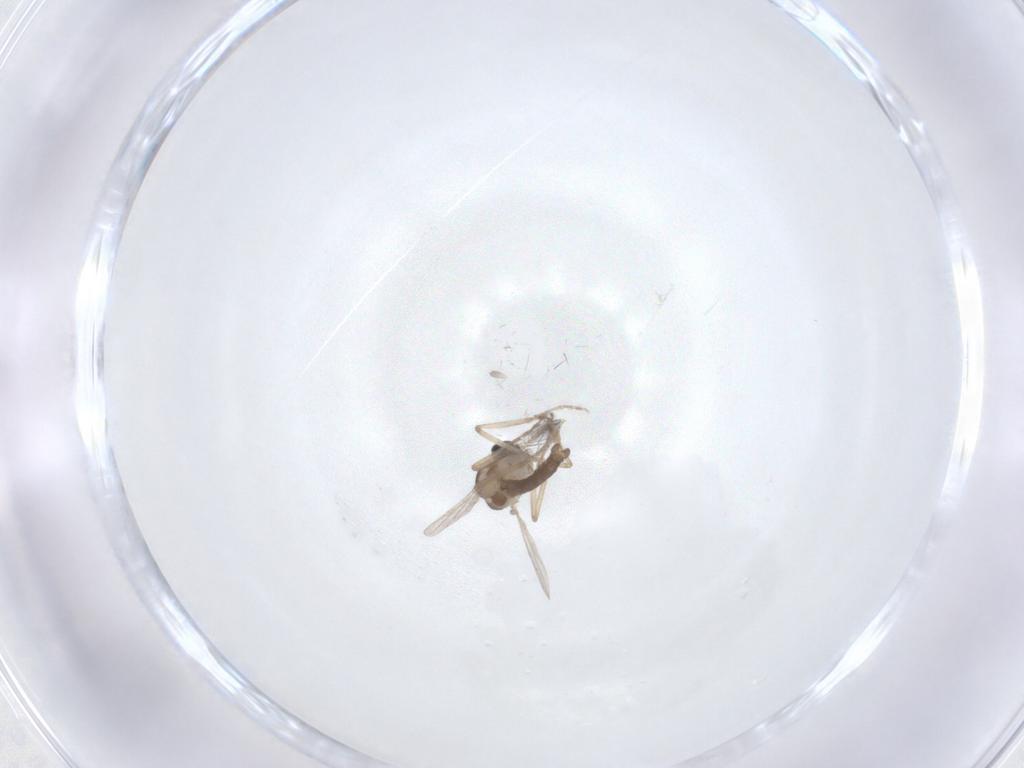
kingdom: Animalia
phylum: Arthropoda
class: Insecta
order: Diptera
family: Ceratopogonidae
